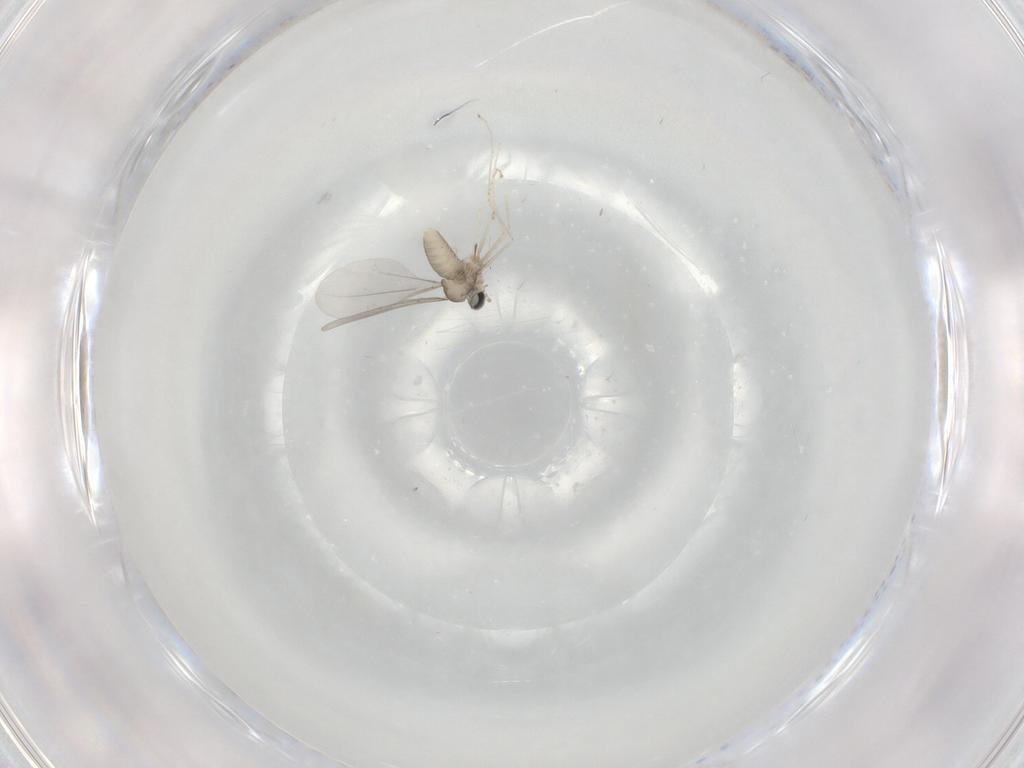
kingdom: Animalia
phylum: Arthropoda
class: Insecta
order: Diptera
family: Cecidomyiidae
